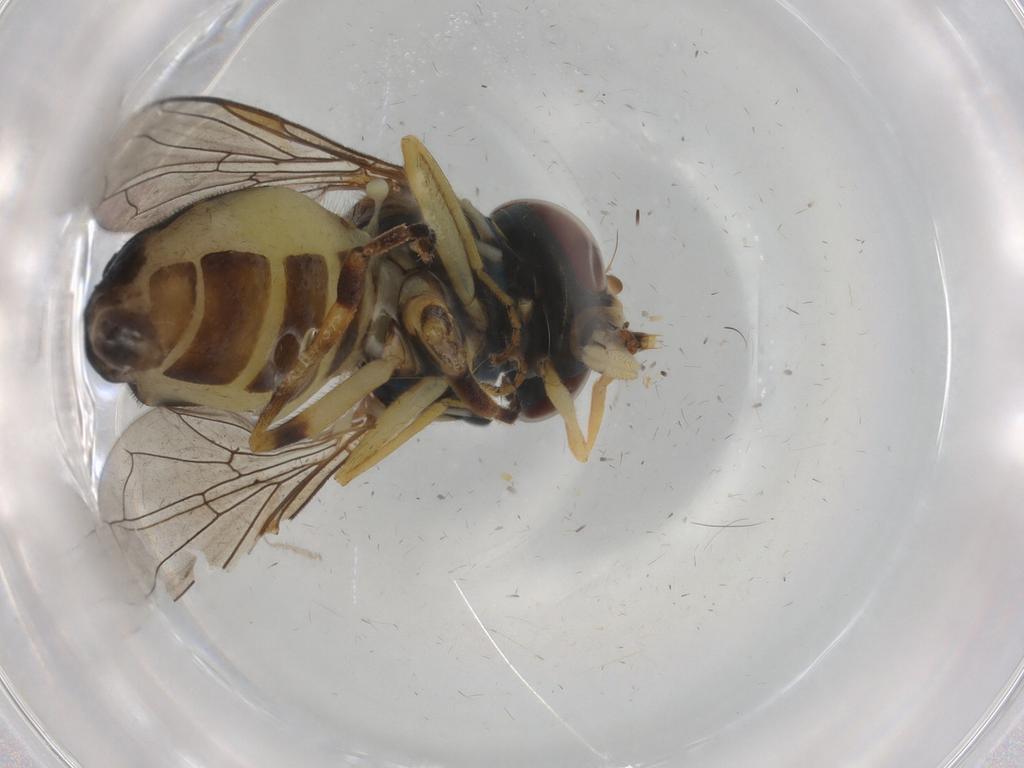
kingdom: Animalia
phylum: Arthropoda
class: Insecta
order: Diptera
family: Syrphidae
